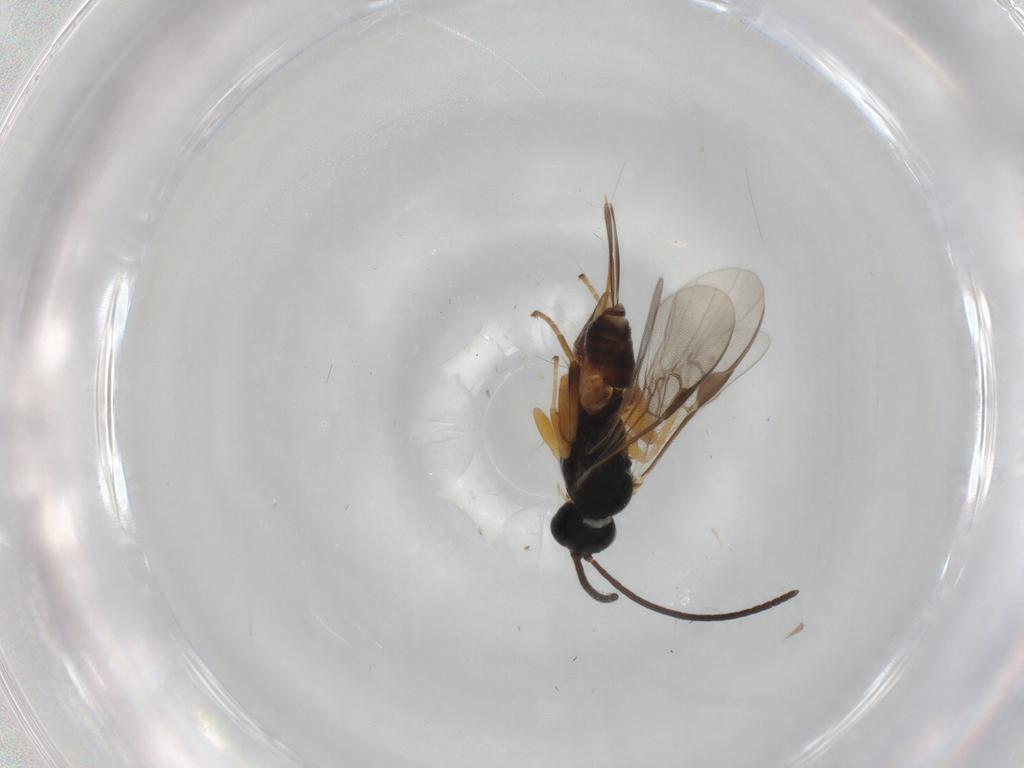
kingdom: Animalia
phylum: Arthropoda
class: Insecta
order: Hymenoptera
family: Braconidae
